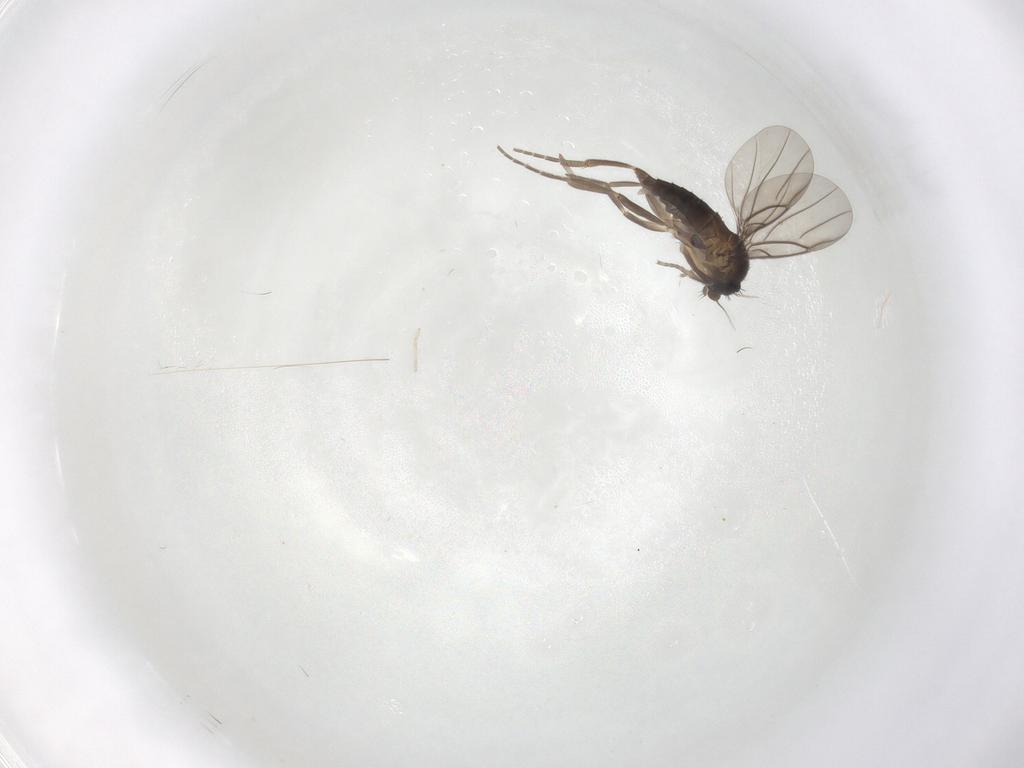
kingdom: Animalia
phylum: Arthropoda
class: Insecta
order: Diptera
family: Phoridae
